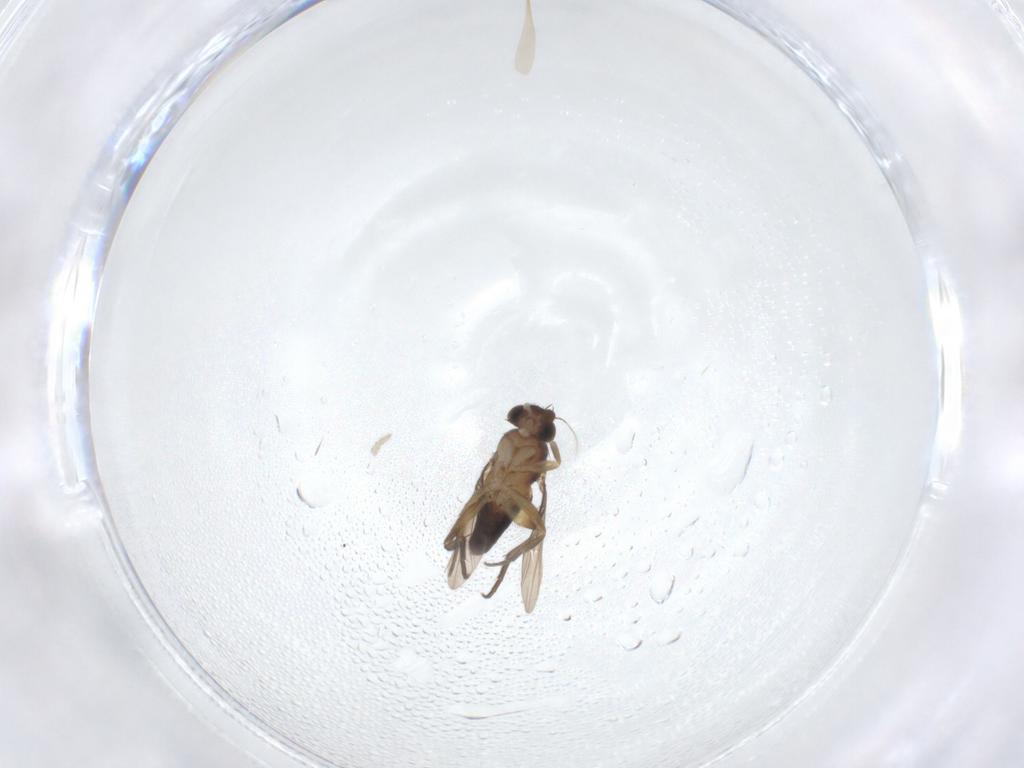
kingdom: Animalia
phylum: Arthropoda
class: Insecta
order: Diptera
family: Phoridae
